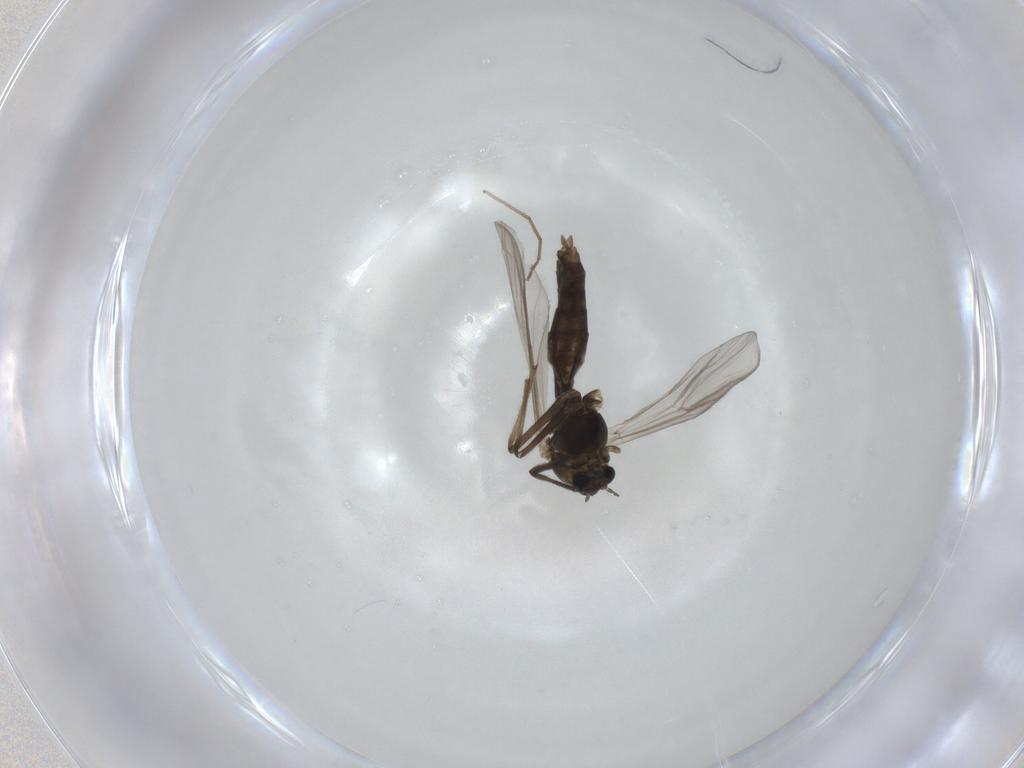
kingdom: Animalia
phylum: Arthropoda
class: Insecta
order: Diptera
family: Chironomidae
